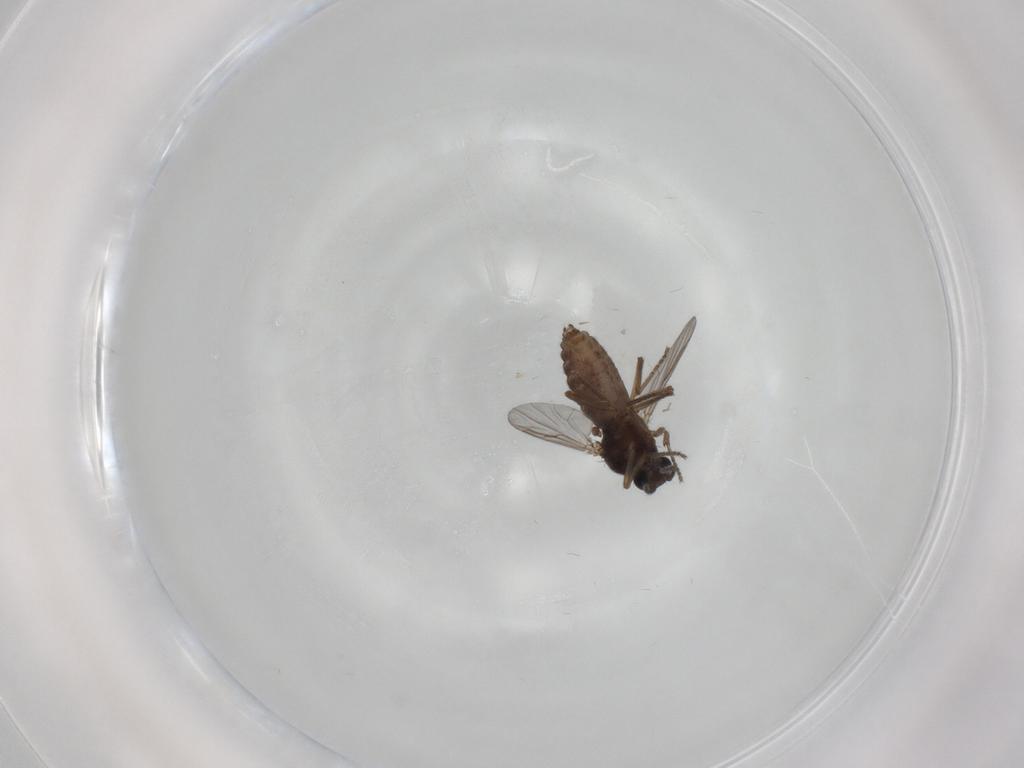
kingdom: Animalia
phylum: Arthropoda
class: Insecta
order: Diptera
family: Ceratopogonidae
